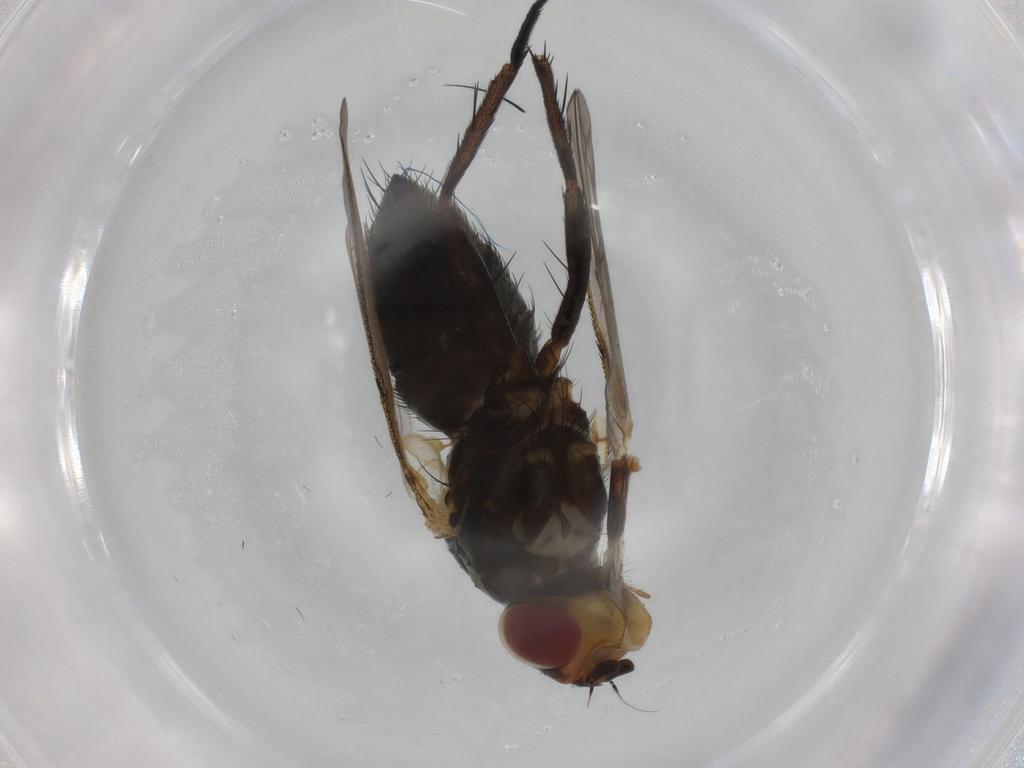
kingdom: Animalia
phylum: Arthropoda
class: Insecta
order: Diptera
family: Calliphoridae
